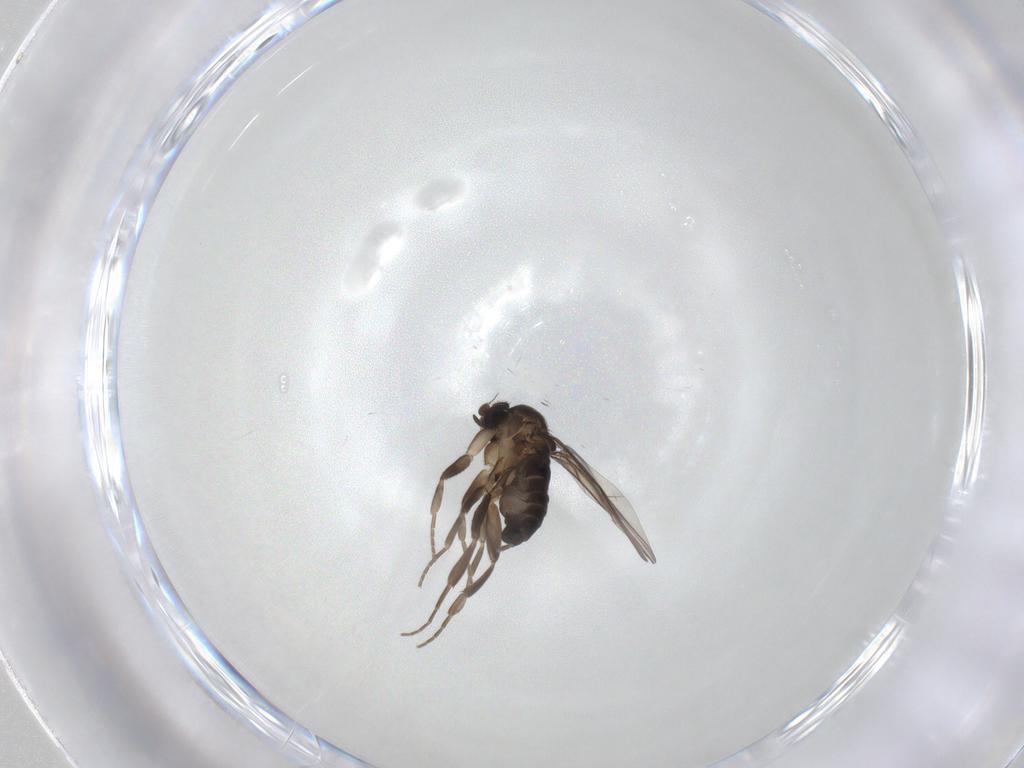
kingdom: Animalia
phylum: Arthropoda
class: Insecta
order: Diptera
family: Phoridae
